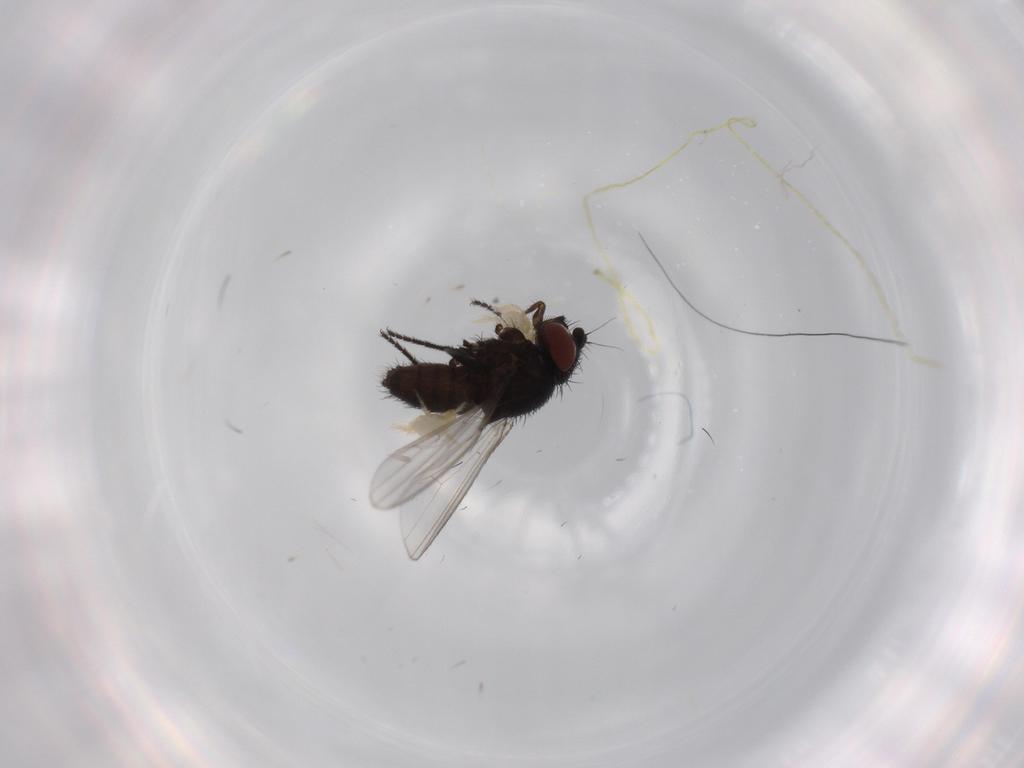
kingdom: Animalia
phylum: Arthropoda
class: Insecta
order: Diptera
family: Milichiidae
